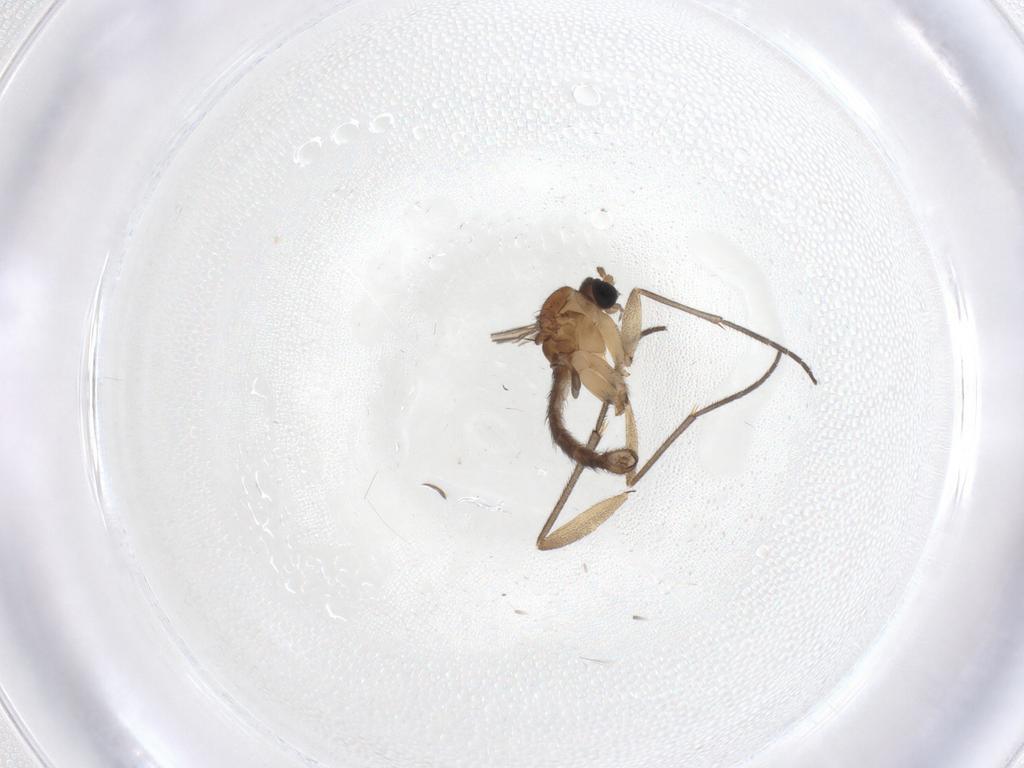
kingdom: Animalia
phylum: Arthropoda
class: Insecta
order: Diptera
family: Sciaridae
